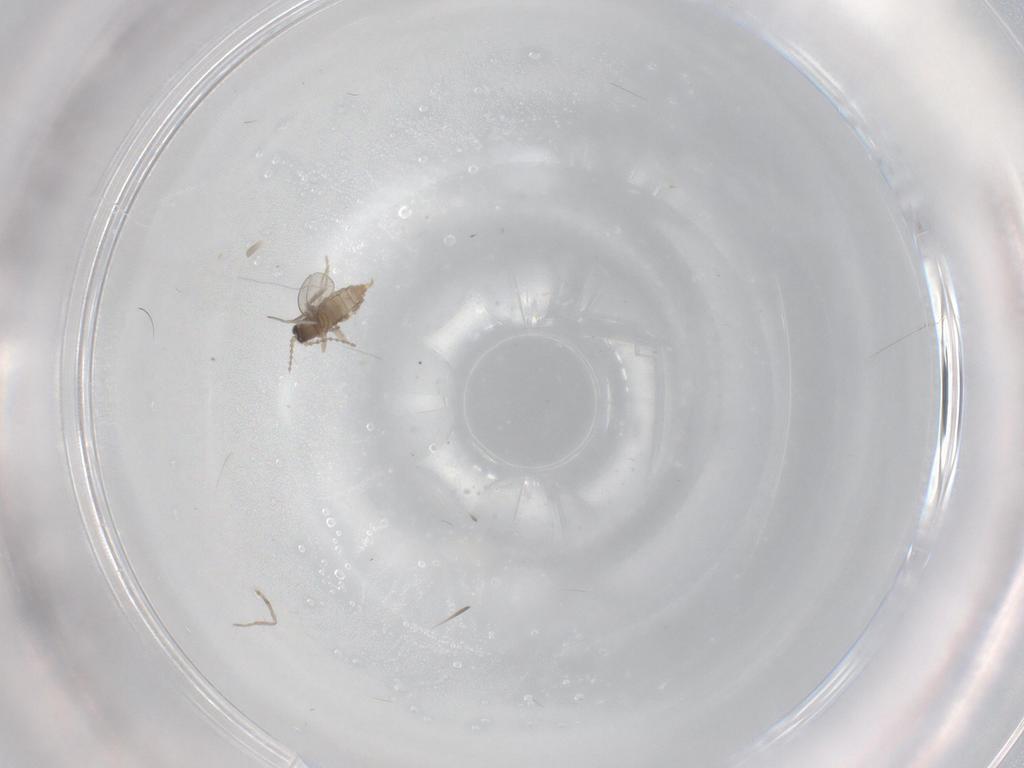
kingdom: Animalia
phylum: Arthropoda
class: Insecta
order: Diptera
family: Cecidomyiidae
